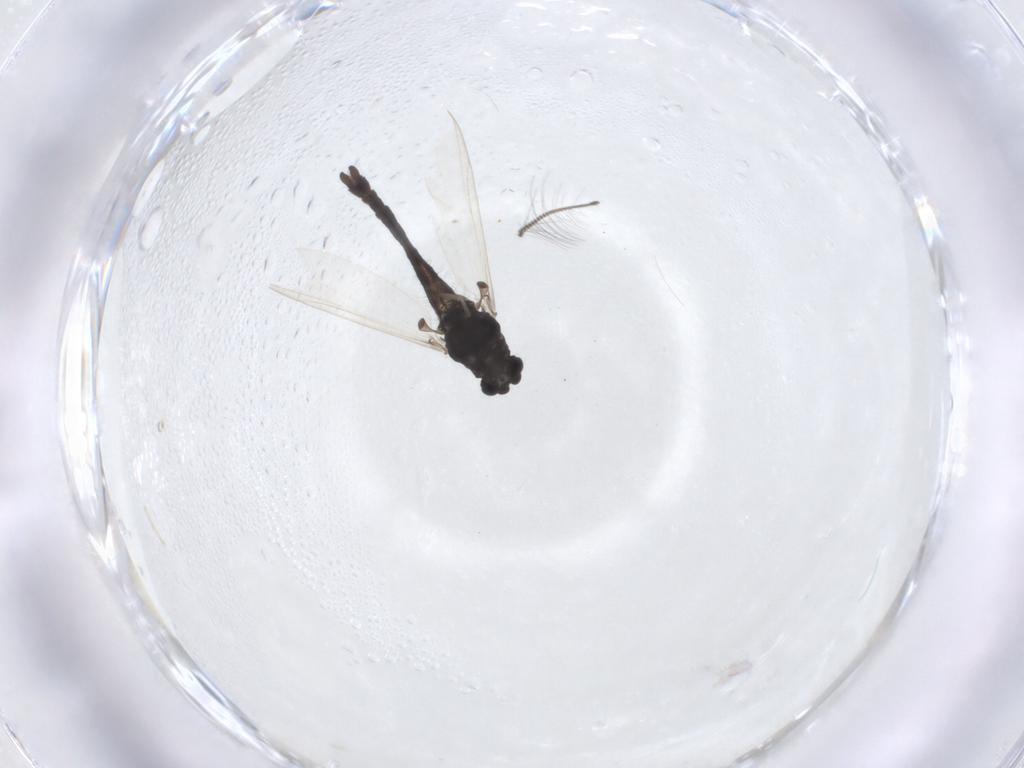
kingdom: Animalia
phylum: Arthropoda
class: Insecta
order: Diptera
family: Chironomidae
